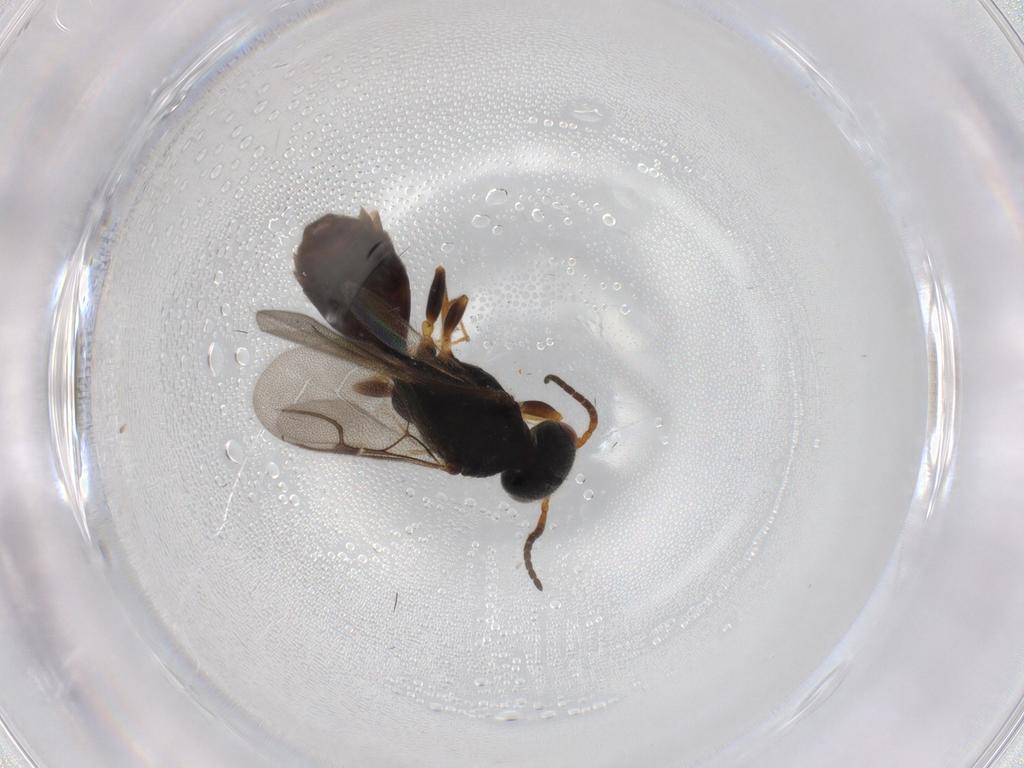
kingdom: Animalia
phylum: Arthropoda
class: Insecta
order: Hymenoptera
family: Bethylidae
